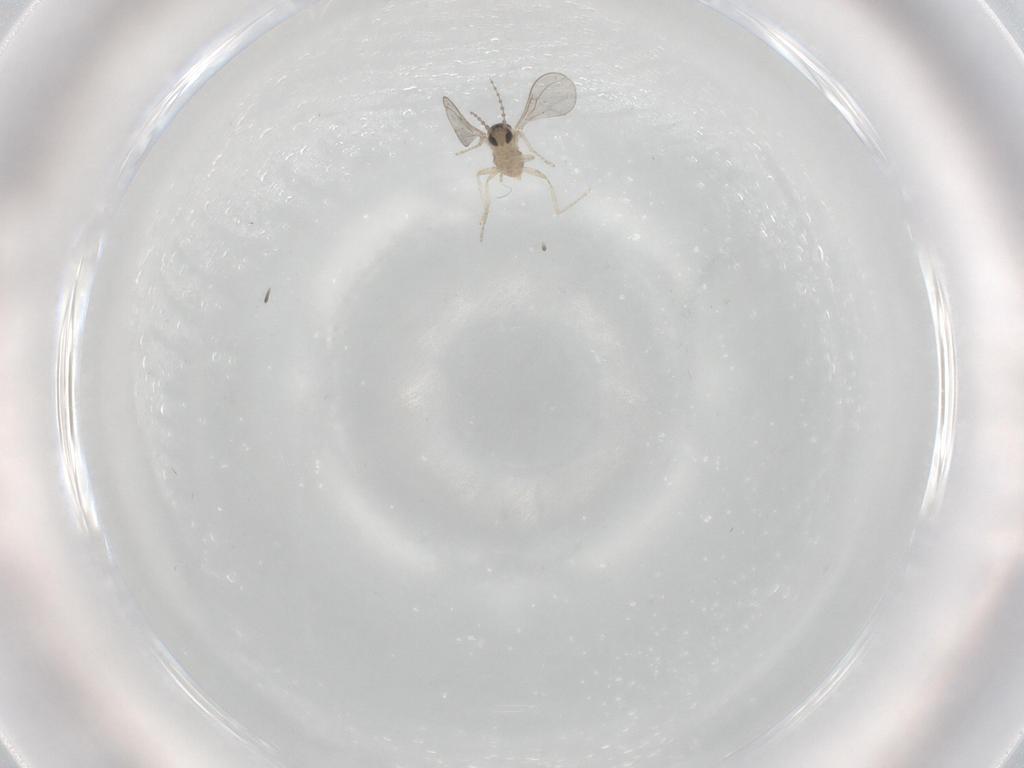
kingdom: Animalia
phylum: Arthropoda
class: Insecta
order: Diptera
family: Cecidomyiidae
